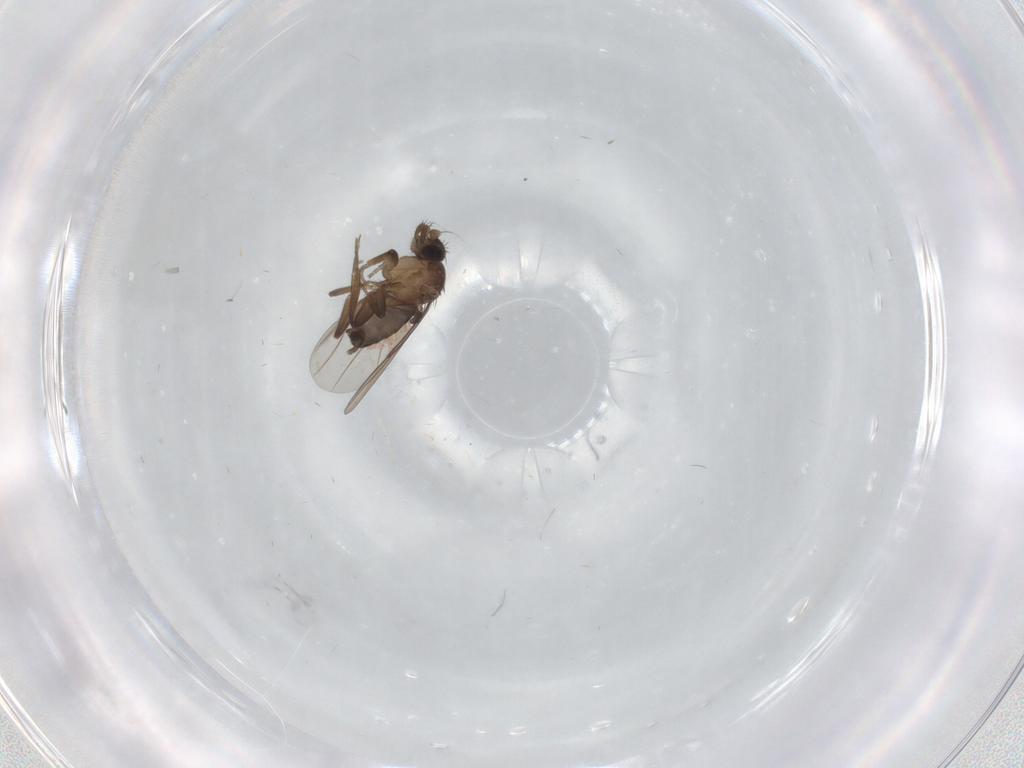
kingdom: Animalia
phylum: Arthropoda
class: Insecta
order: Diptera
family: Phoridae
